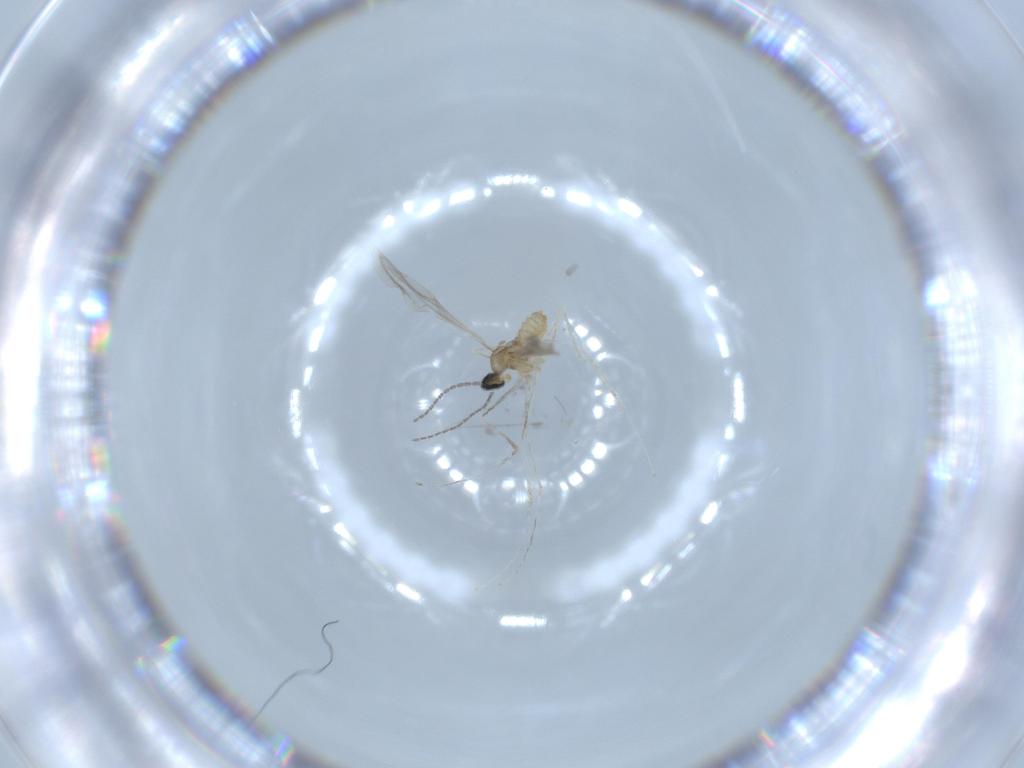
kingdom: Animalia
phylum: Arthropoda
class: Insecta
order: Diptera
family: Cecidomyiidae
